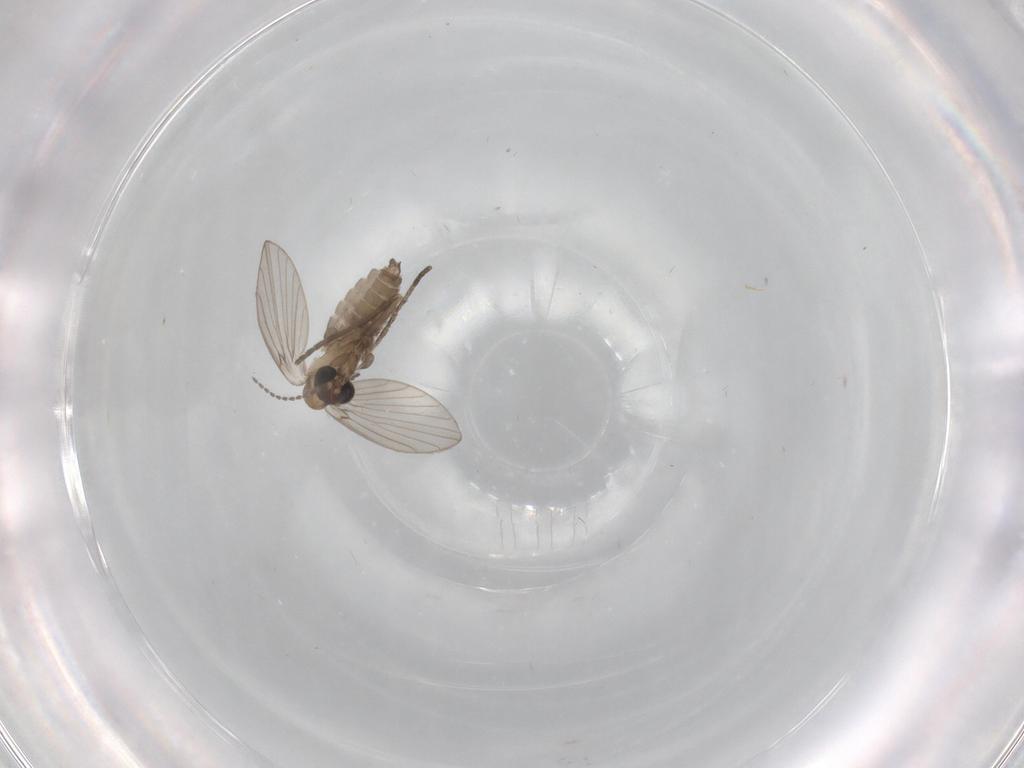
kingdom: Animalia
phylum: Arthropoda
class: Insecta
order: Diptera
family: Psychodidae
